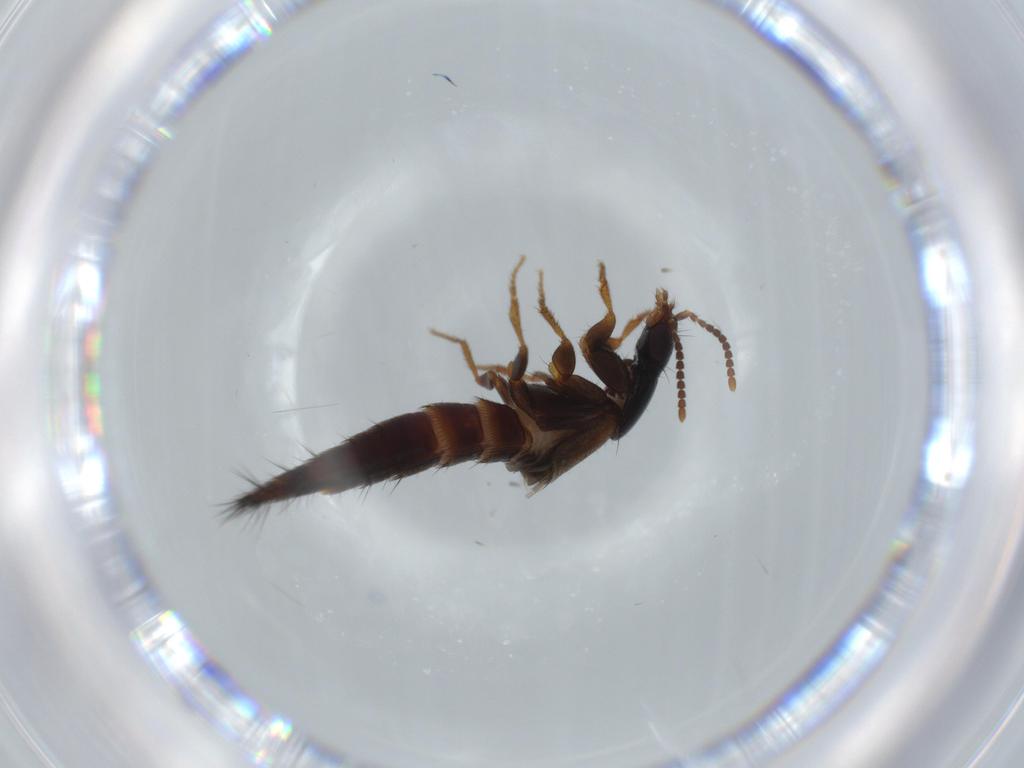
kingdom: Animalia
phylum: Arthropoda
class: Insecta
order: Coleoptera
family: Staphylinidae
